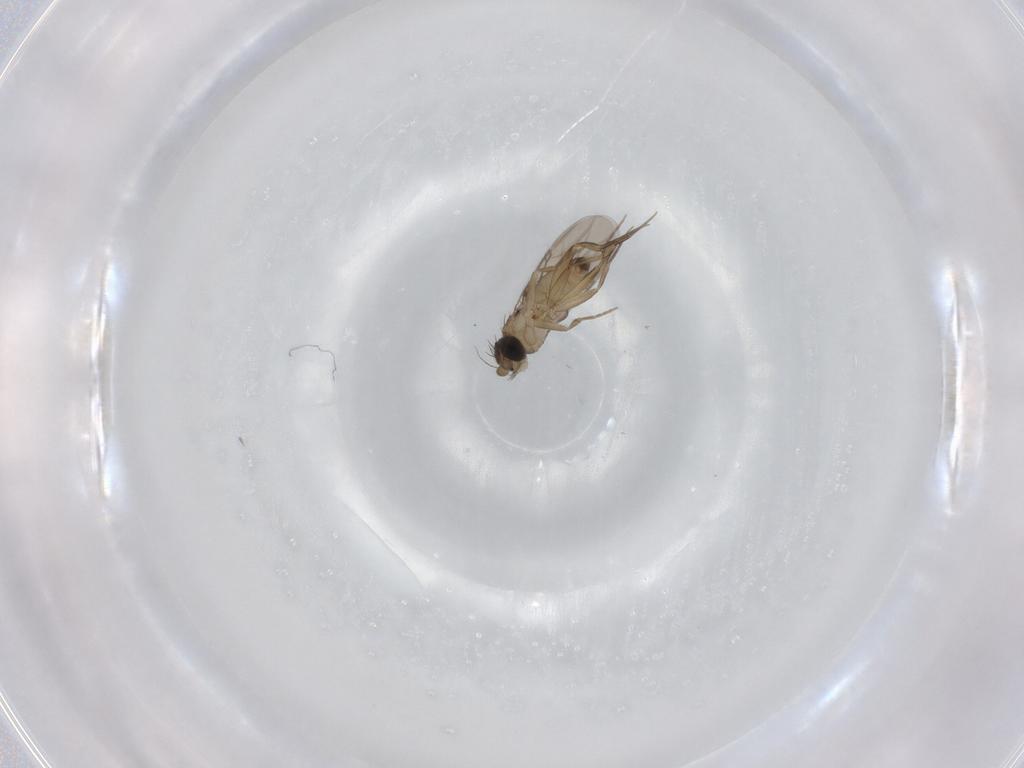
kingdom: Animalia
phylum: Arthropoda
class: Insecta
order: Diptera
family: Phoridae
